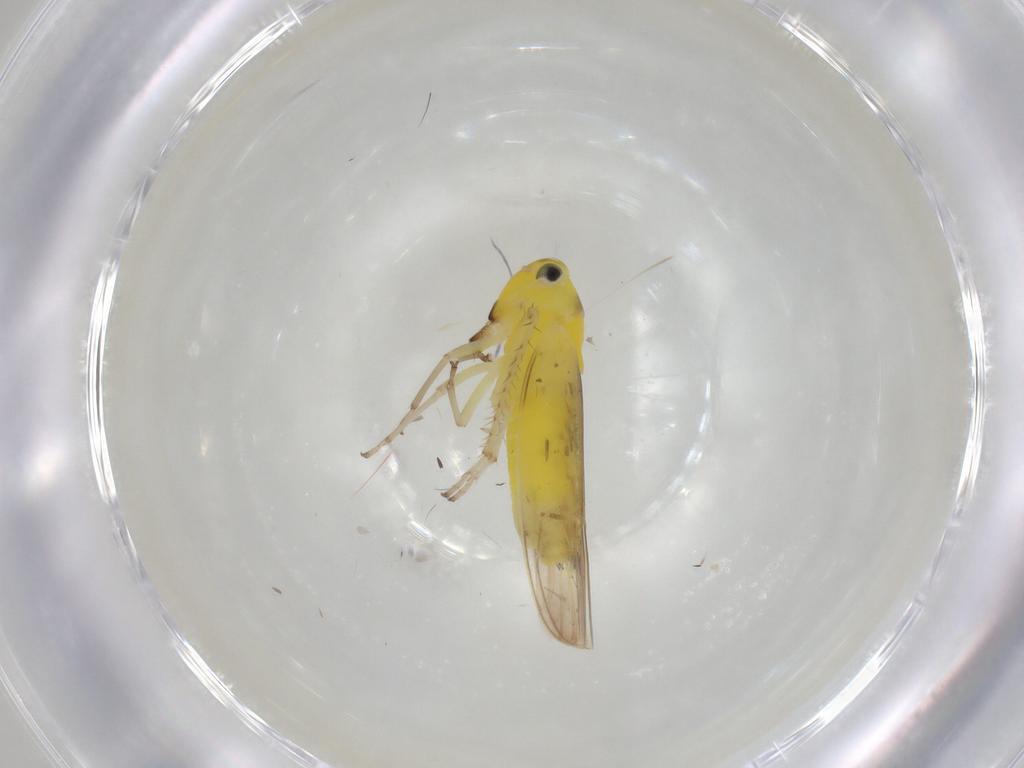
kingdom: Animalia
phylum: Arthropoda
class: Insecta
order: Hemiptera
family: Cicadellidae
